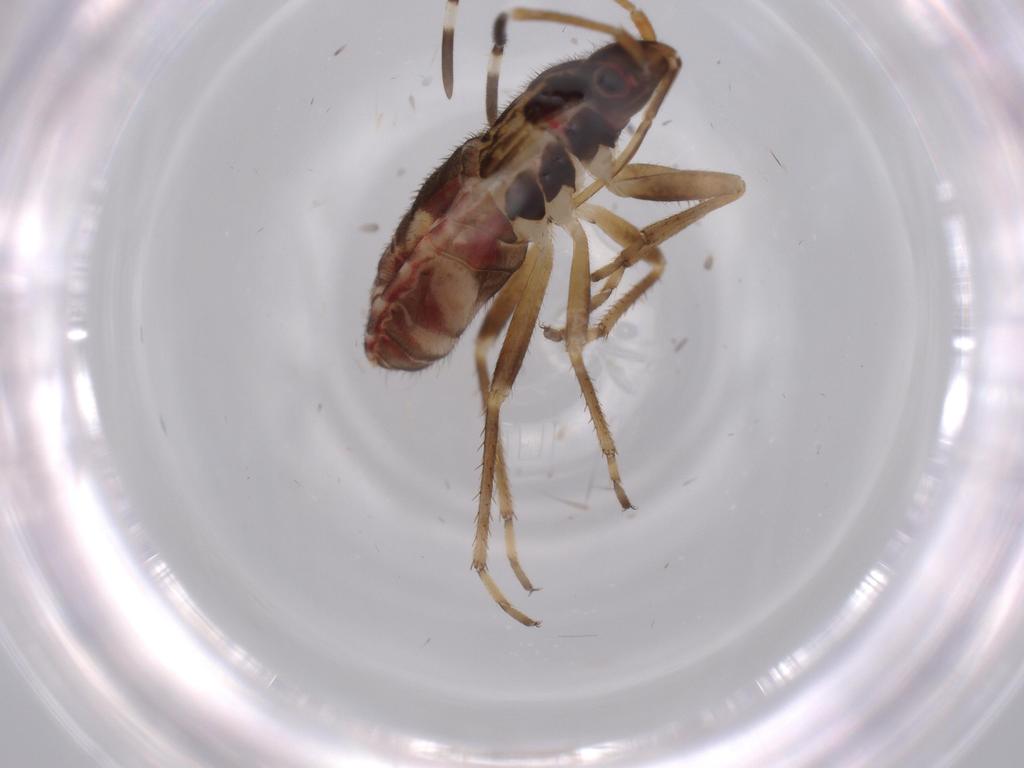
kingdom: Animalia
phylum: Arthropoda
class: Insecta
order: Hemiptera
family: Rhyparochromidae
